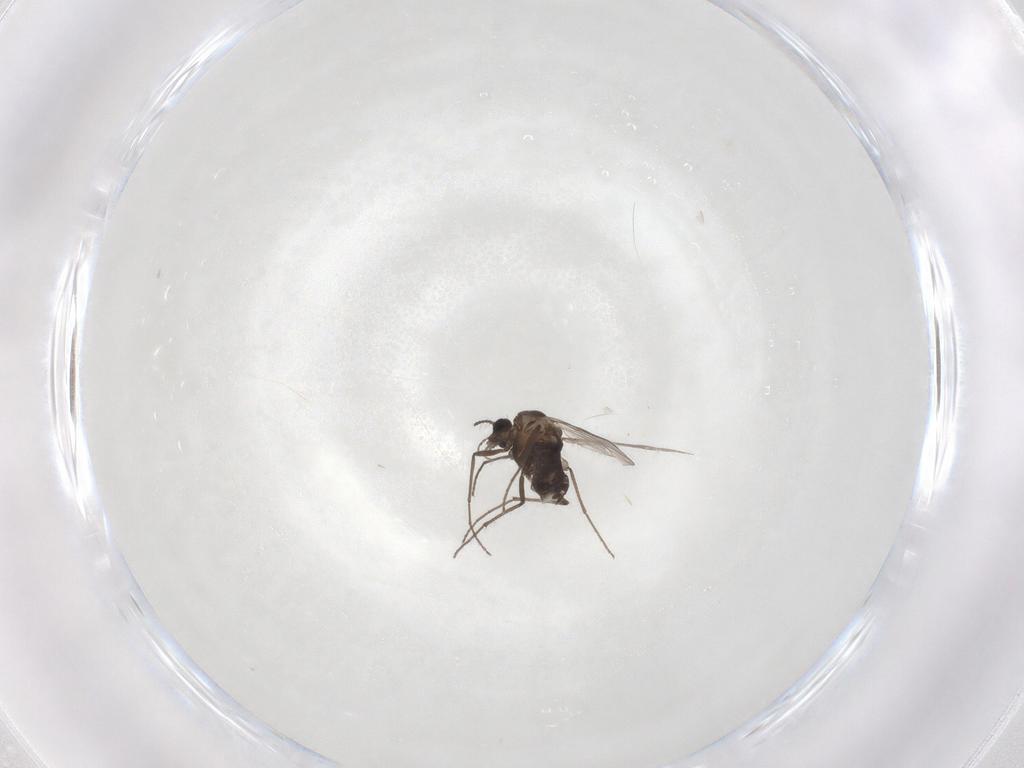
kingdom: Animalia
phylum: Arthropoda
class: Insecta
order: Diptera
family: Chironomidae
